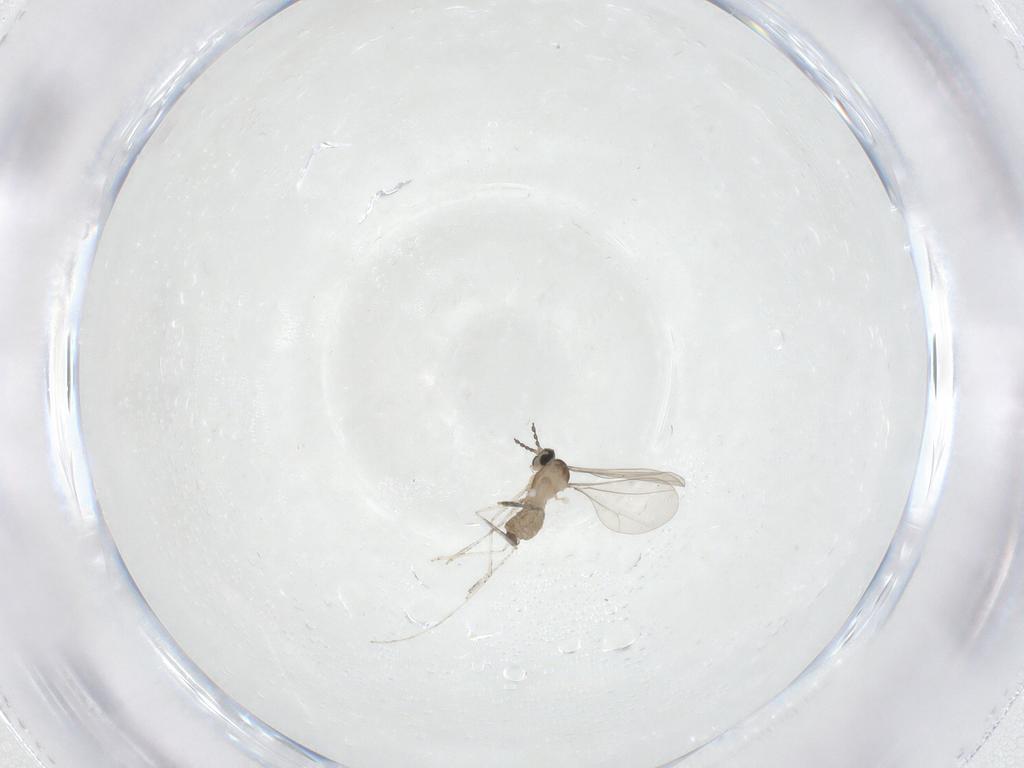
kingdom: Animalia
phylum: Arthropoda
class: Insecta
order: Diptera
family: Cecidomyiidae
